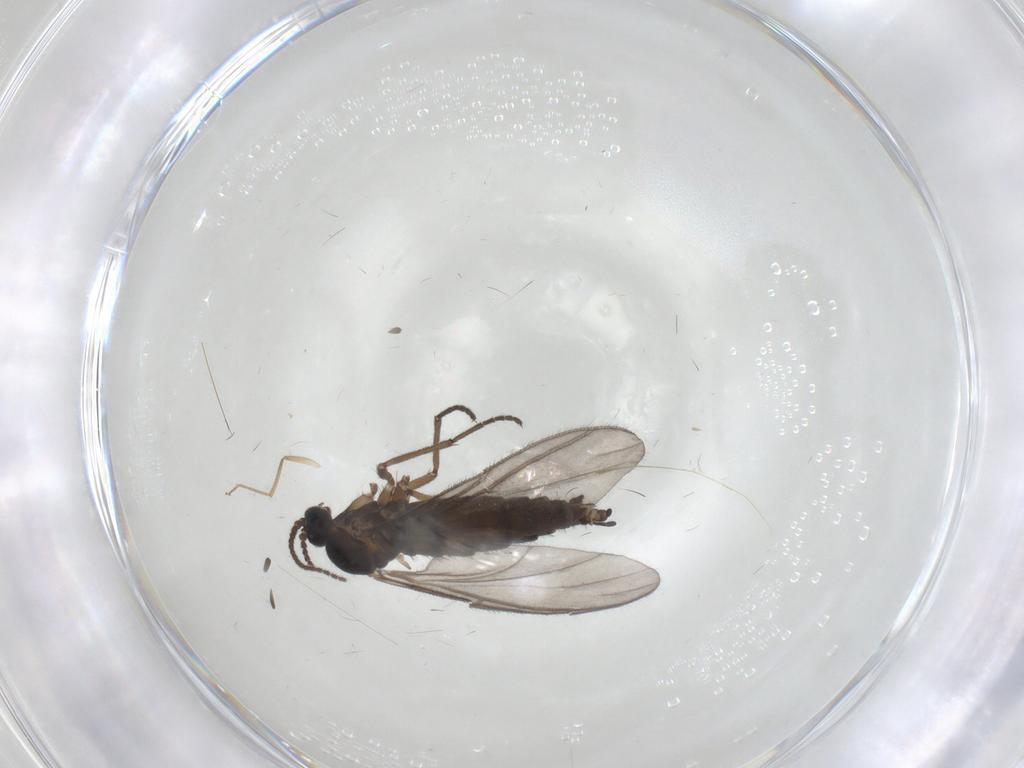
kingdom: Animalia
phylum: Arthropoda
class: Insecta
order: Diptera
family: Sciaridae
